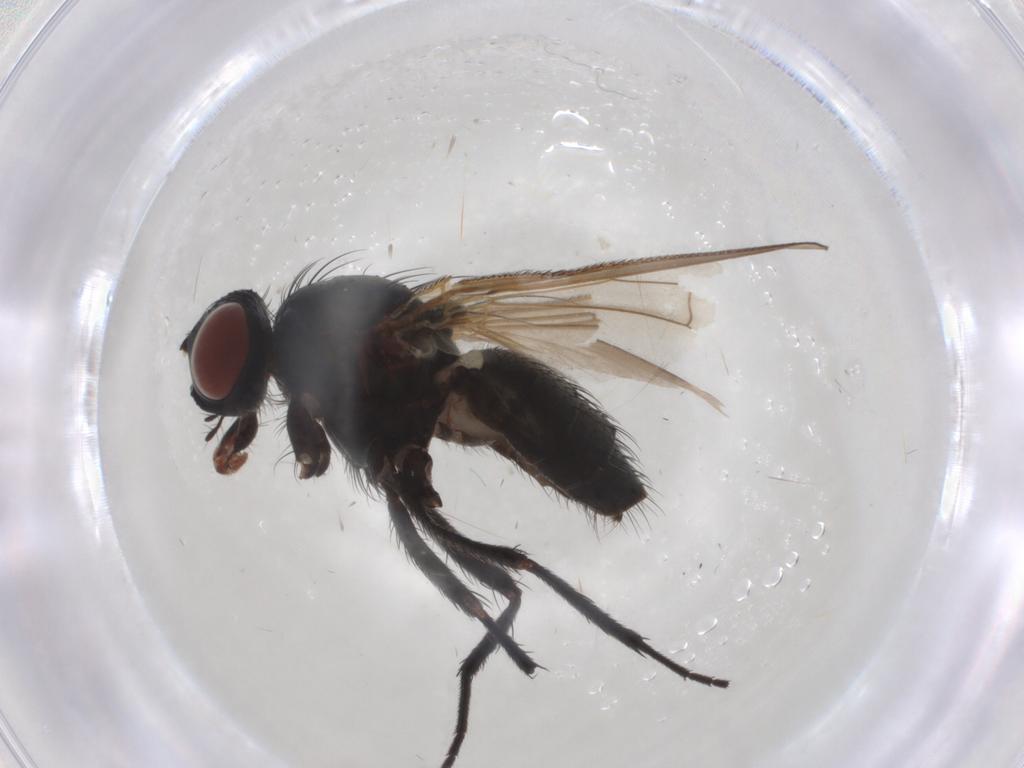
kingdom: Animalia
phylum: Arthropoda
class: Insecta
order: Diptera
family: Anthomyiidae
